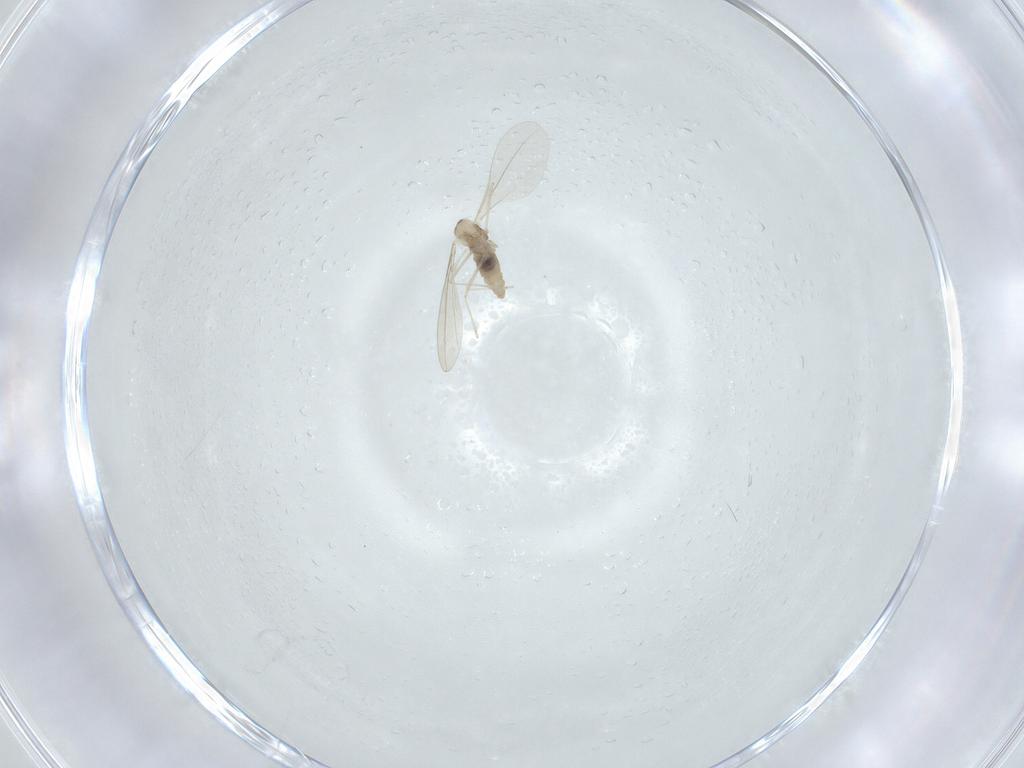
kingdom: Animalia
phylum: Arthropoda
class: Insecta
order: Diptera
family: Cecidomyiidae
